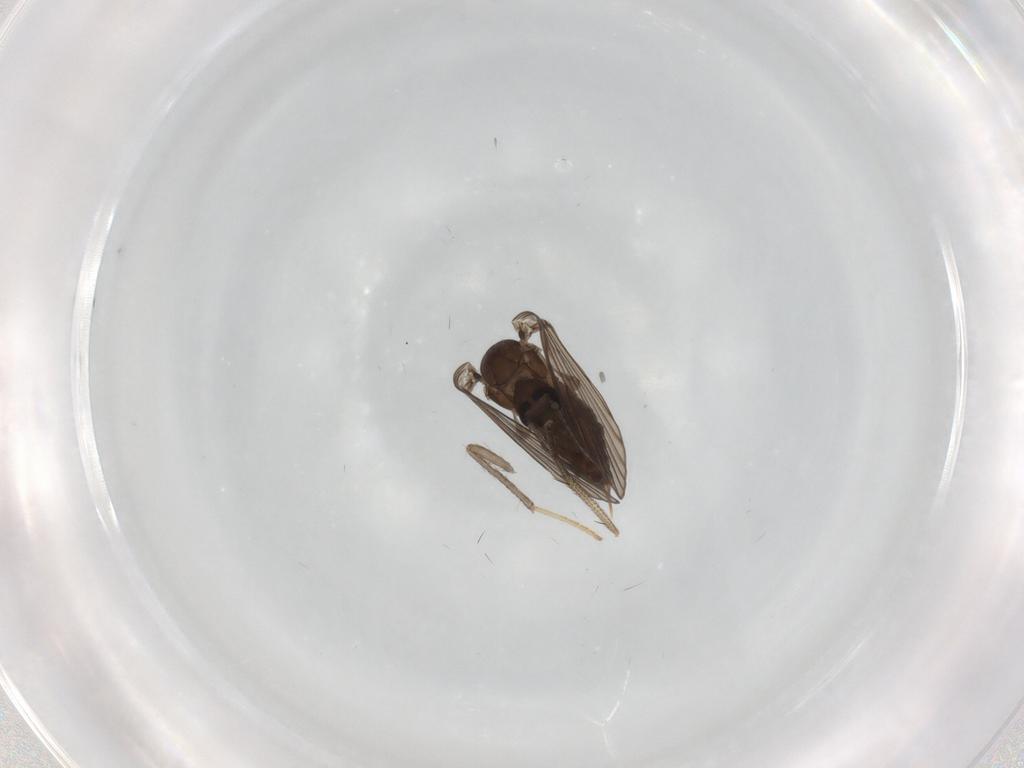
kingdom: Animalia
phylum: Arthropoda
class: Insecta
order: Diptera
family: Psychodidae
